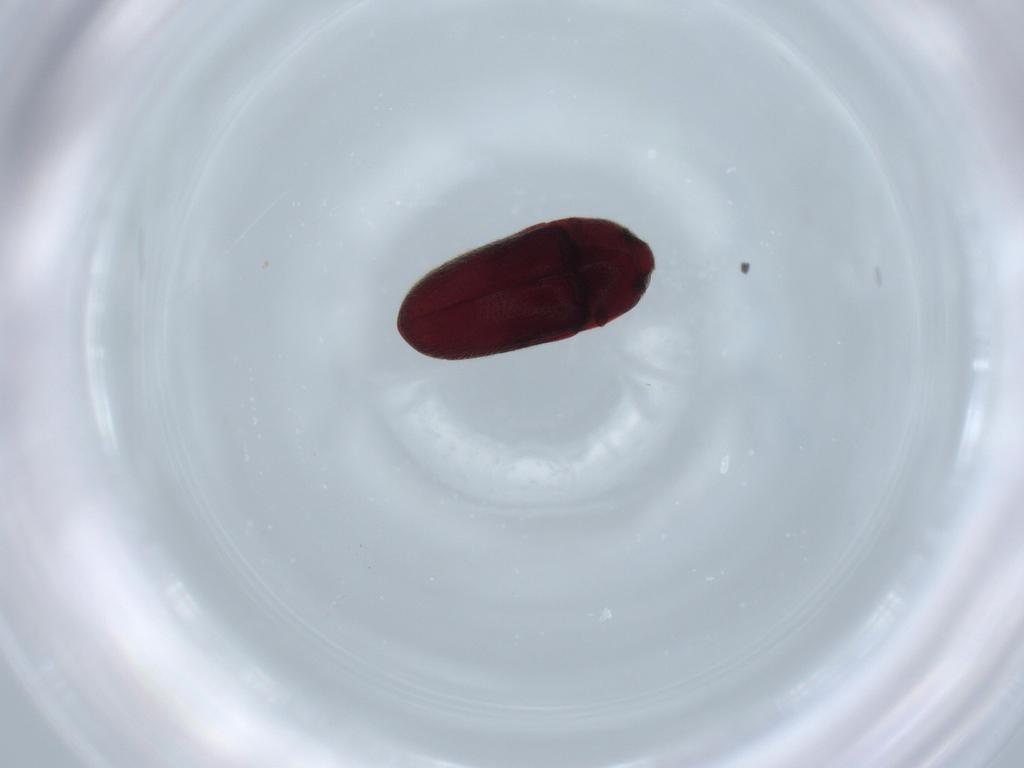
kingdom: Animalia
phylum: Arthropoda
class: Insecta
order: Coleoptera
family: Throscidae
